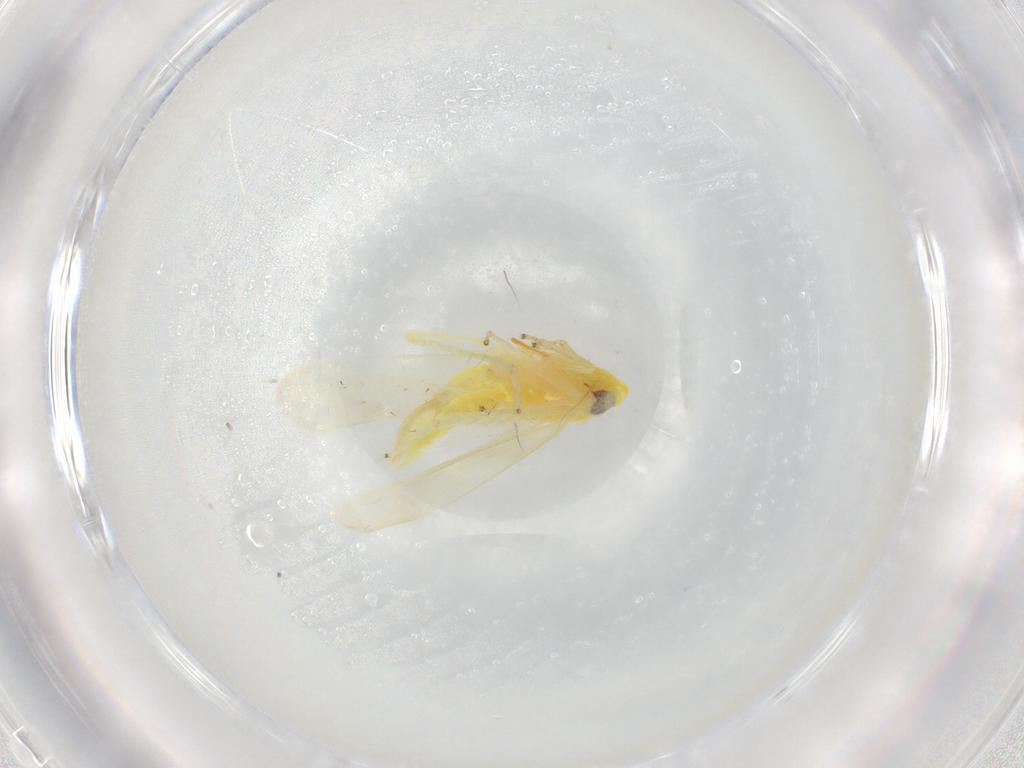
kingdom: Animalia
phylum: Arthropoda
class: Insecta
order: Hemiptera
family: Cicadellidae
